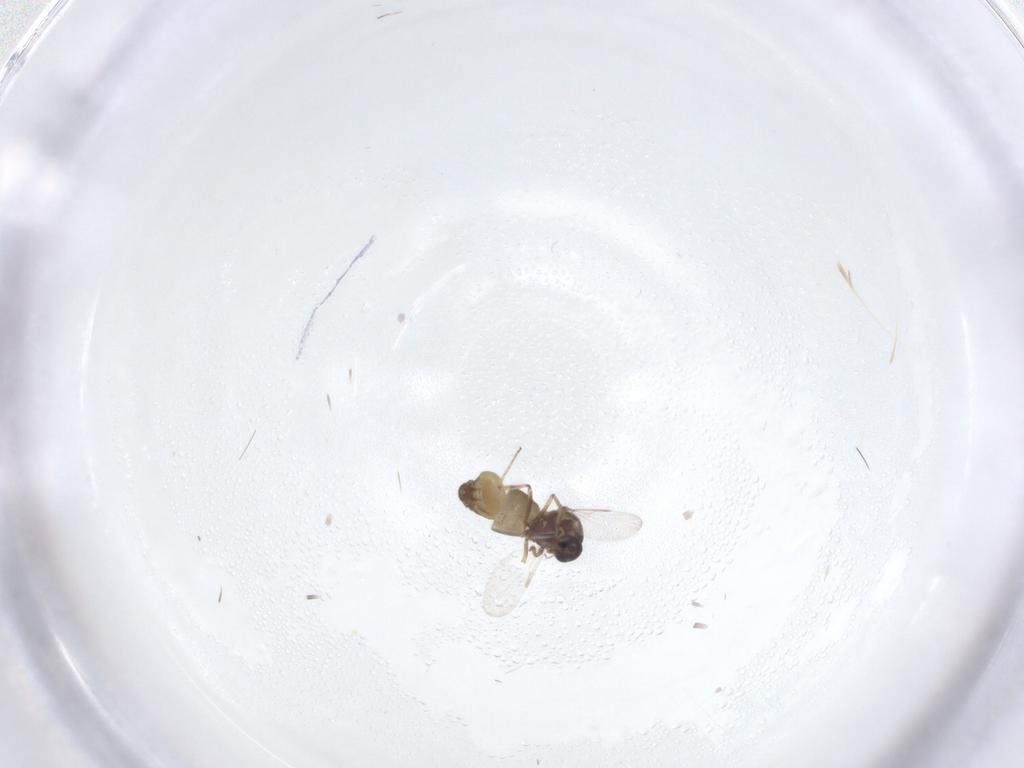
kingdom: Animalia
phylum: Arthropoda
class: Insecta
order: Diptera
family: Ceratopogonidae
